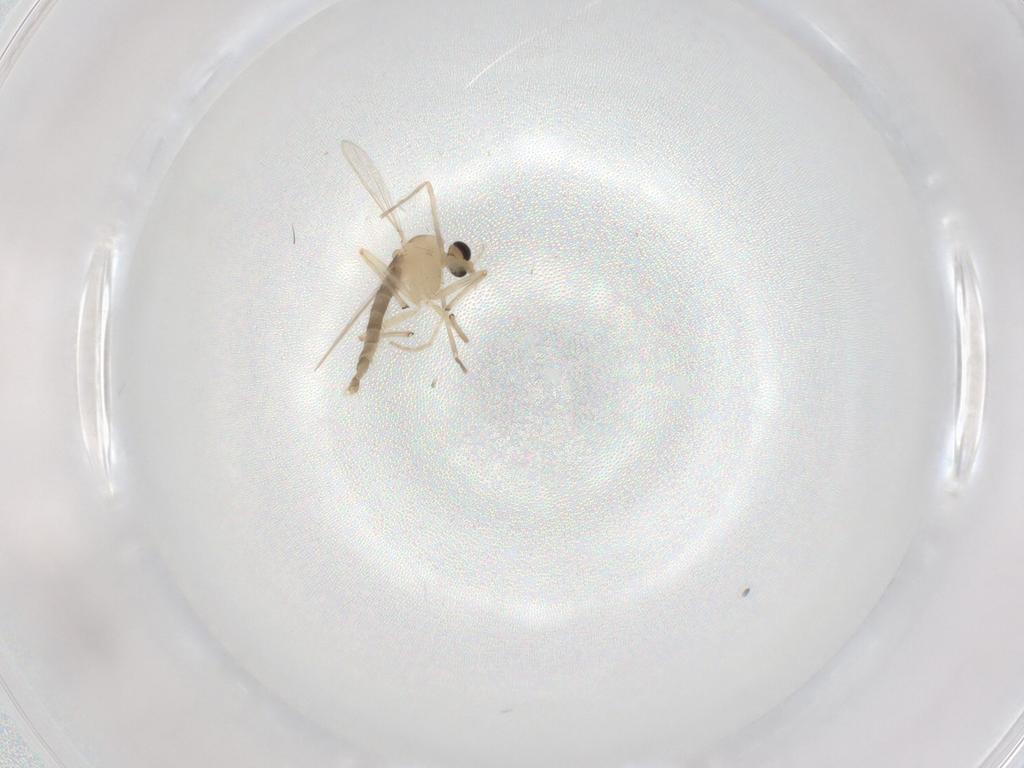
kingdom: Animalia
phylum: Arthropoda
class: Insecta
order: Diptera
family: Chironomidae
